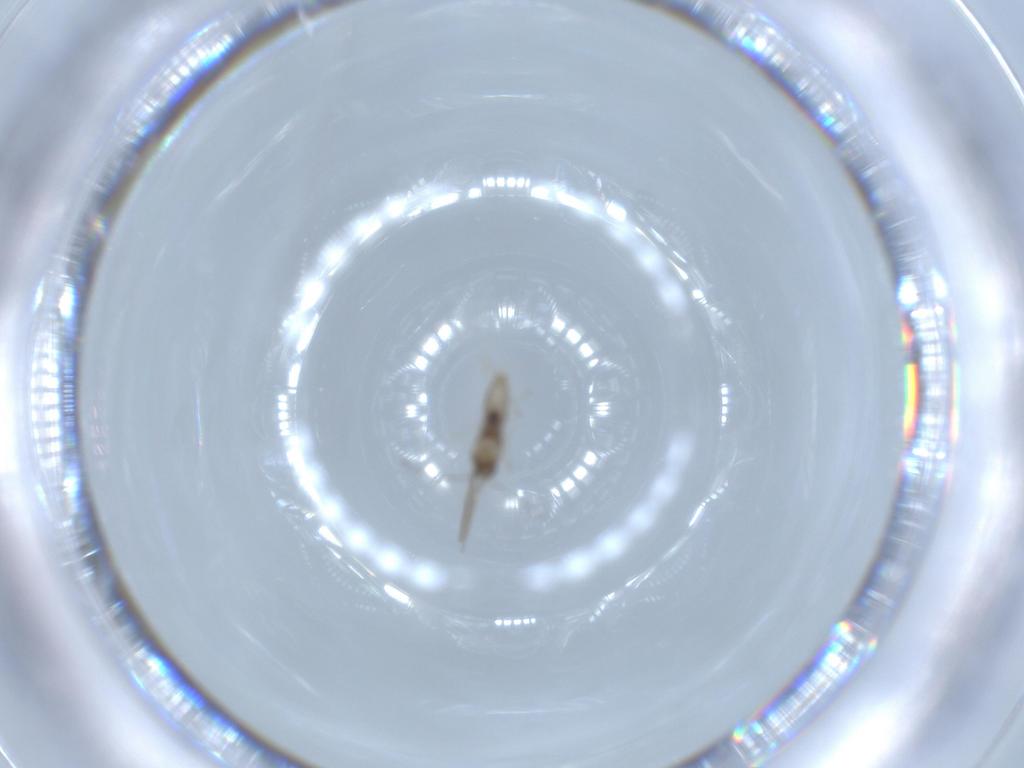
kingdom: Animalia
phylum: Arthropoda
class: Insecta
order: Diptera
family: Cecidomyiidae
